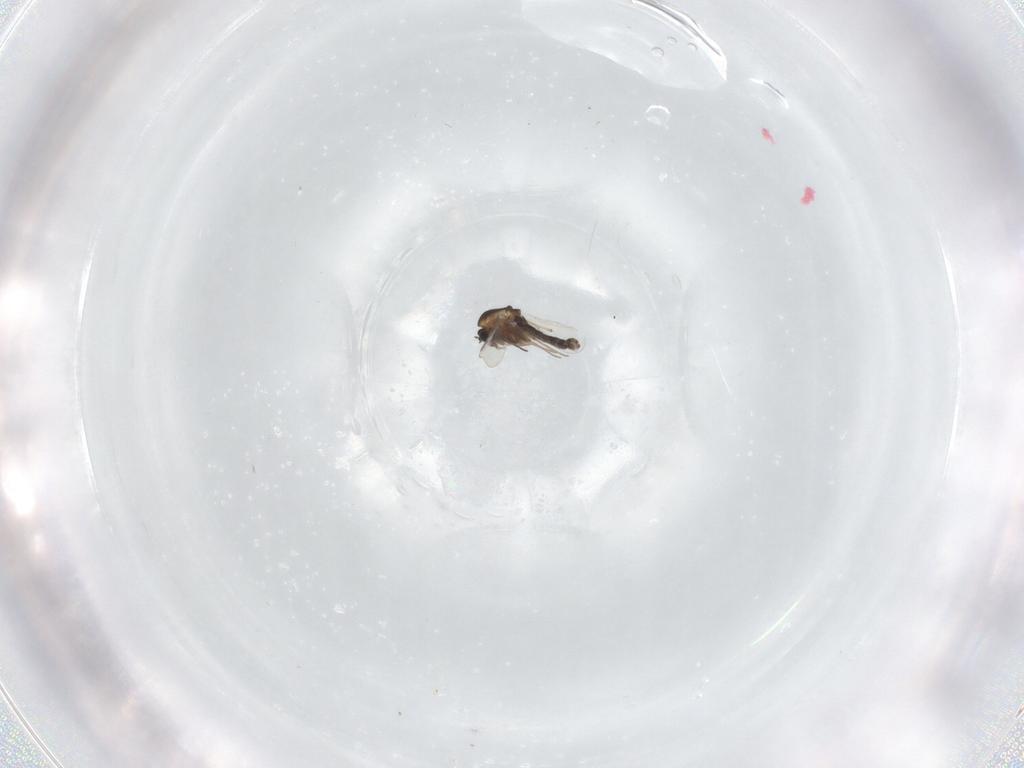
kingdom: Animalia
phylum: Arthropoda
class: Insecta
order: Diptera
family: Chironomidae
